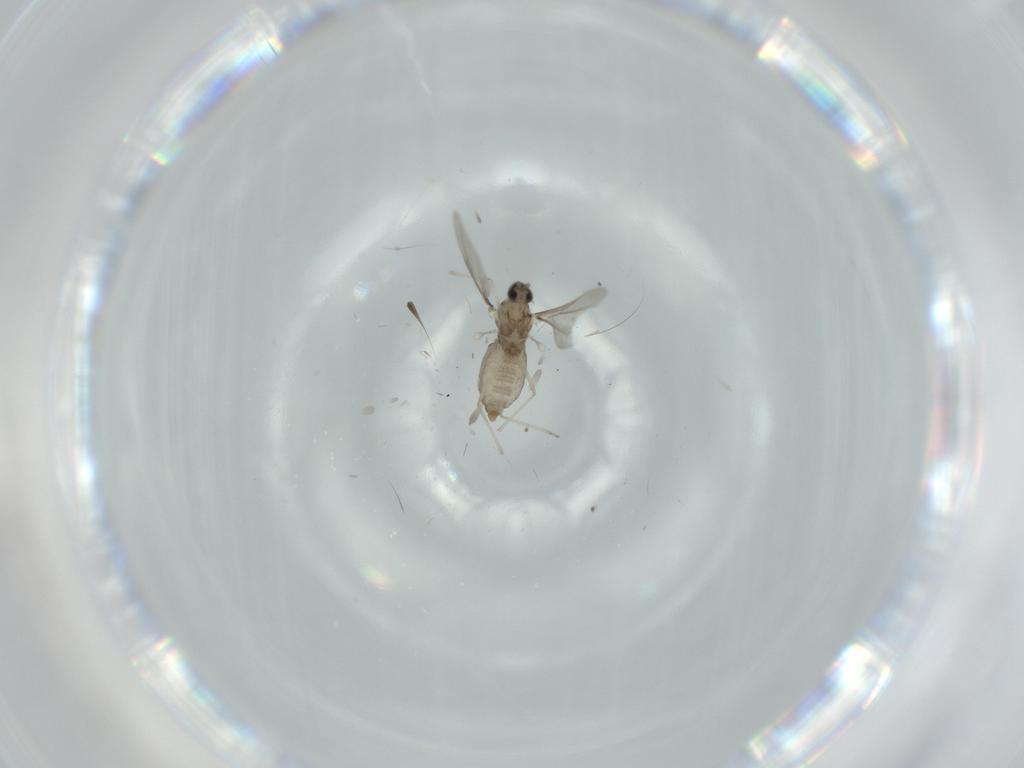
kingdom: Animalia
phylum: Arthropoda
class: Insecta
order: Diptera
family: Cecidomyiidae
